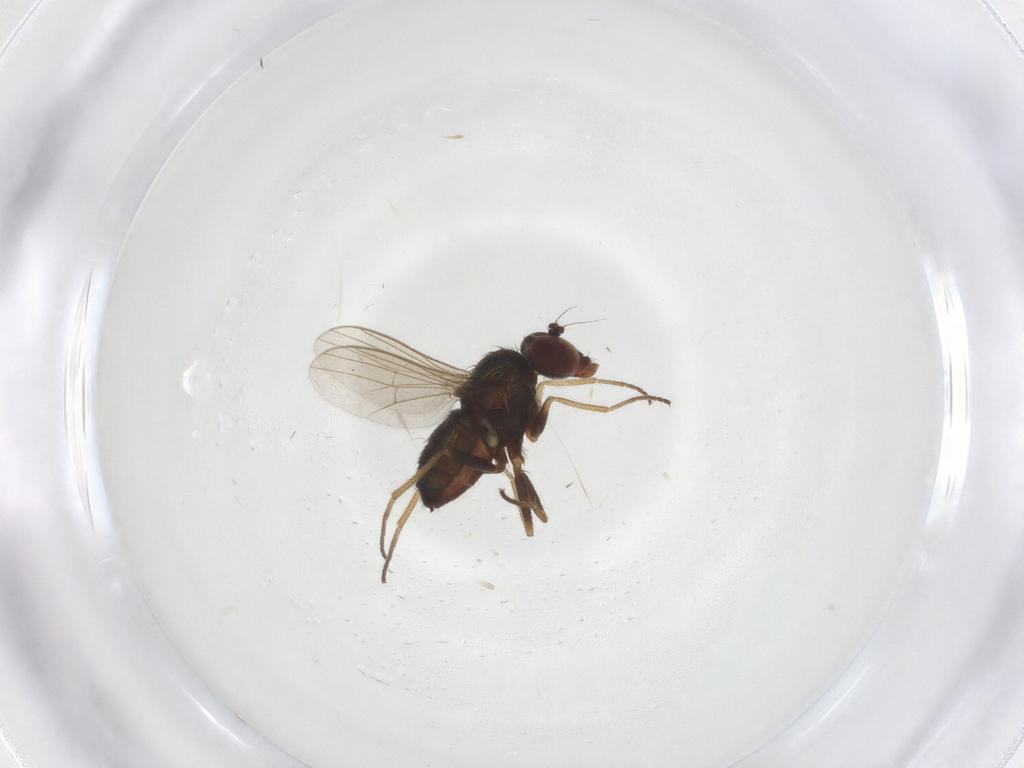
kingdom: Animalia
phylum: Arthropoda
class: Insecta
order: Diptera
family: Dolichopodidae
